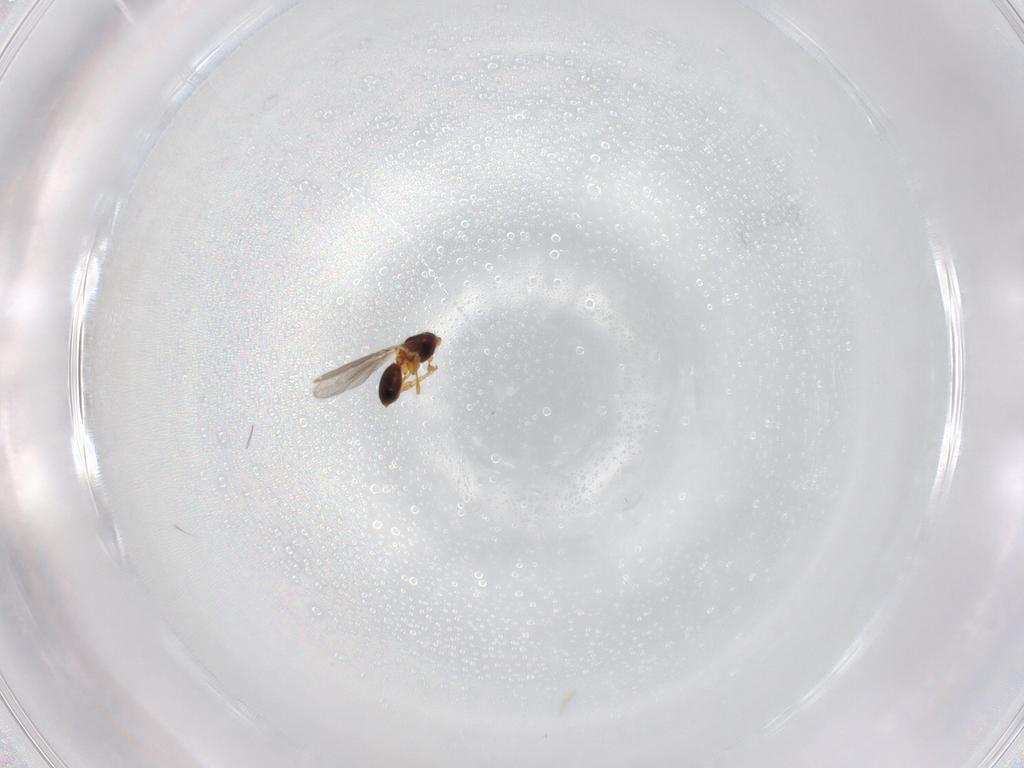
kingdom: Animalia
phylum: Arthropoda
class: Insecta
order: Hymenoptera
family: Diapriidae
